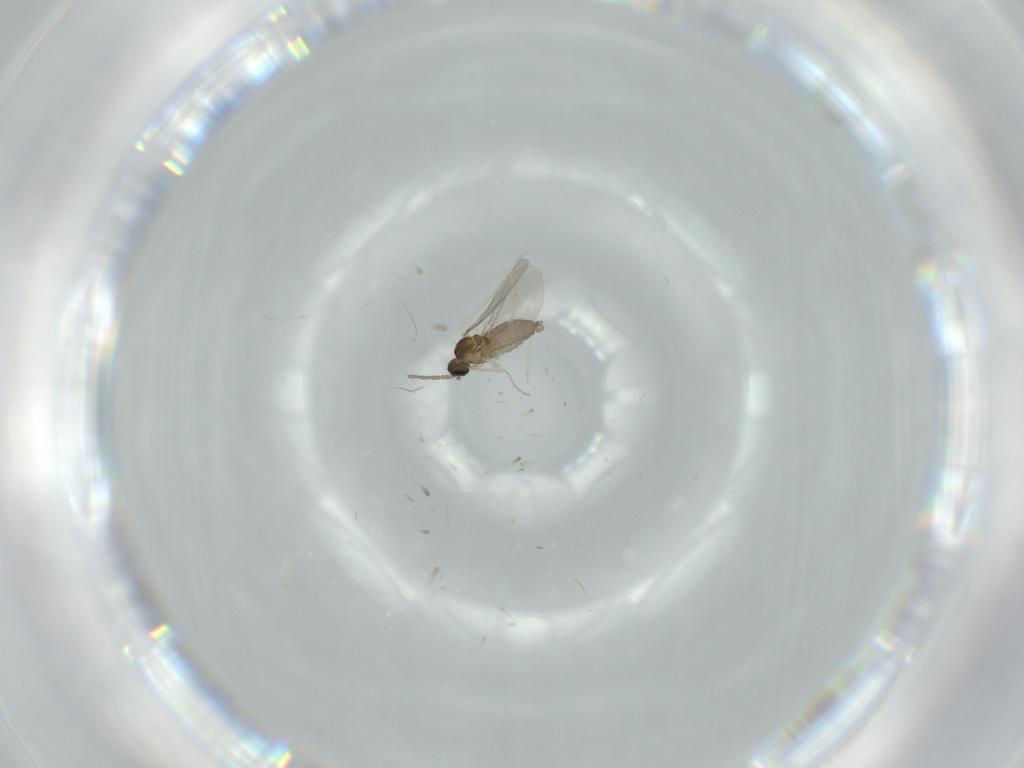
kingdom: Animalia
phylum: Arthropoda
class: Insecta
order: Diptera
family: Cecidomyiidae
